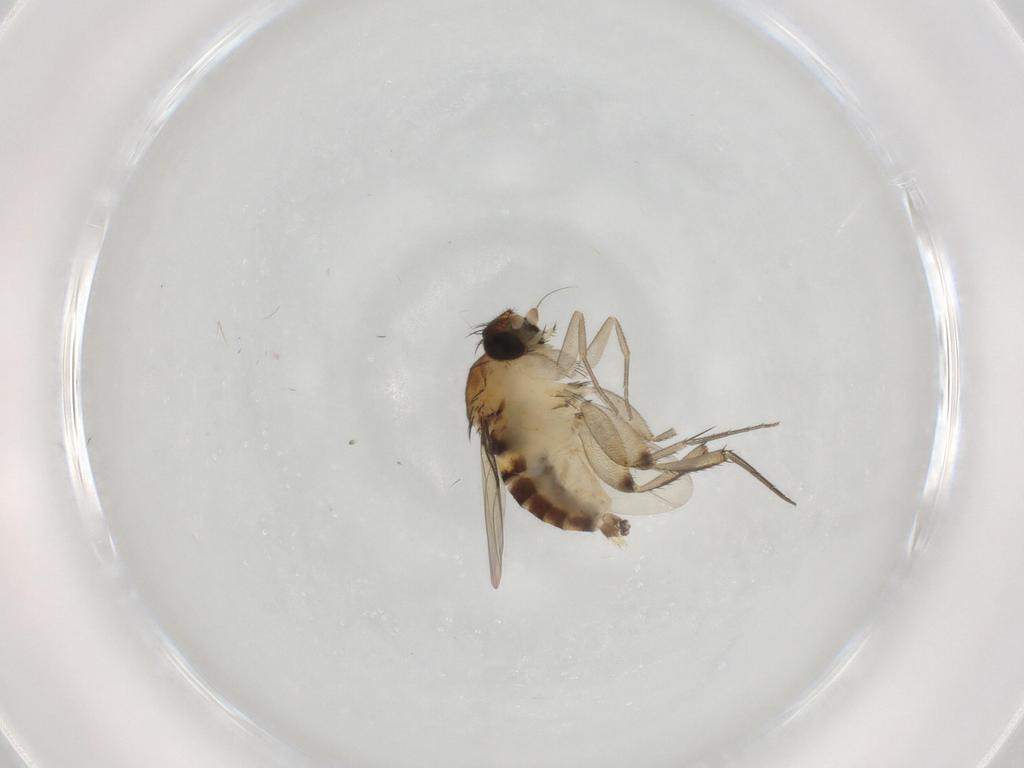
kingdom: Animalia
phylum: Arthropoda
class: Insecta
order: Diptera
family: Phoridae
